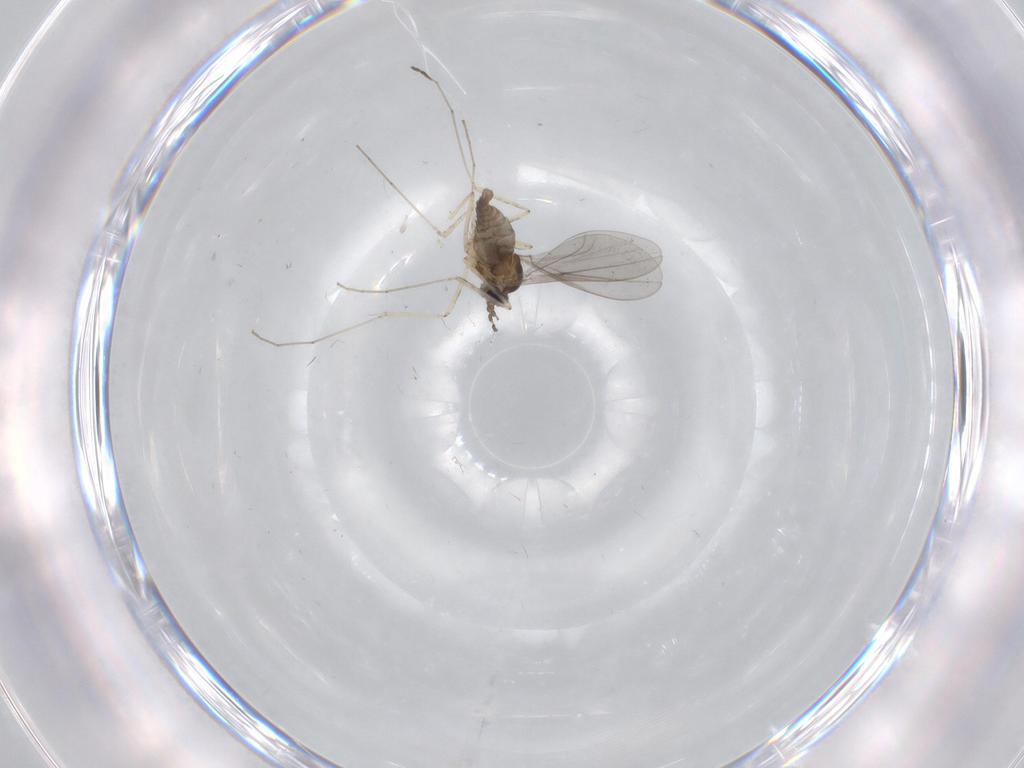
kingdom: Animalia
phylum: Arthropoda
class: Insecta
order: Diptera
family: Cecidomyiidae
